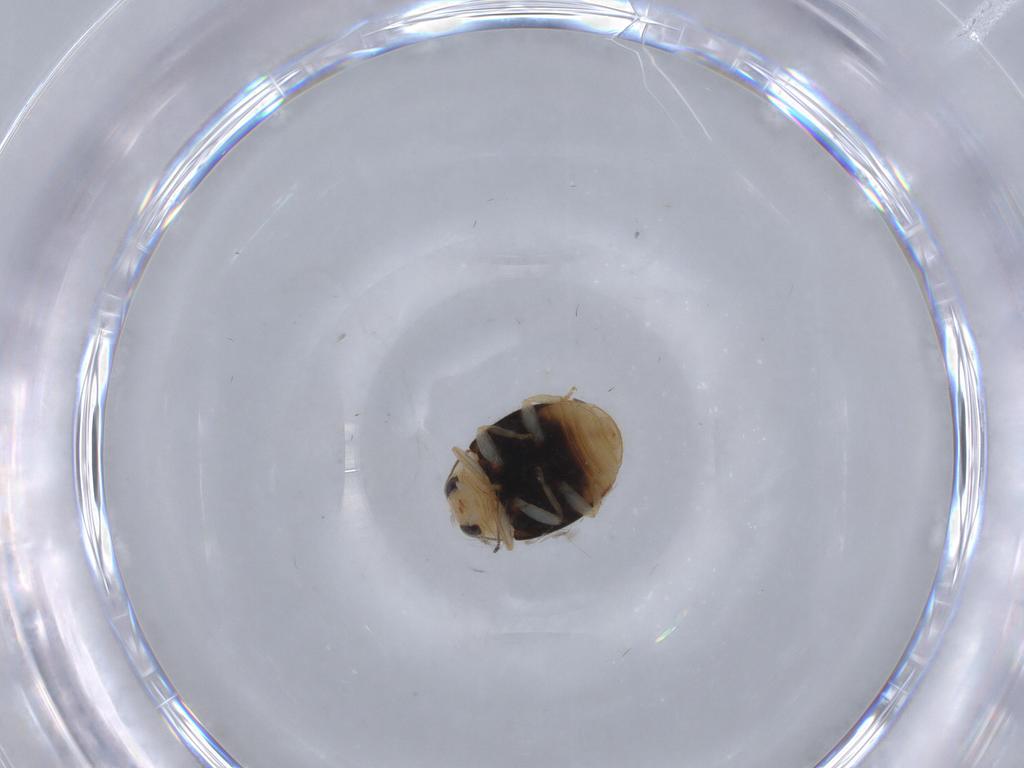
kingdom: Animalia
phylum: Arthropoda
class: Insecta
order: Coleoptera
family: Coccinellidae
